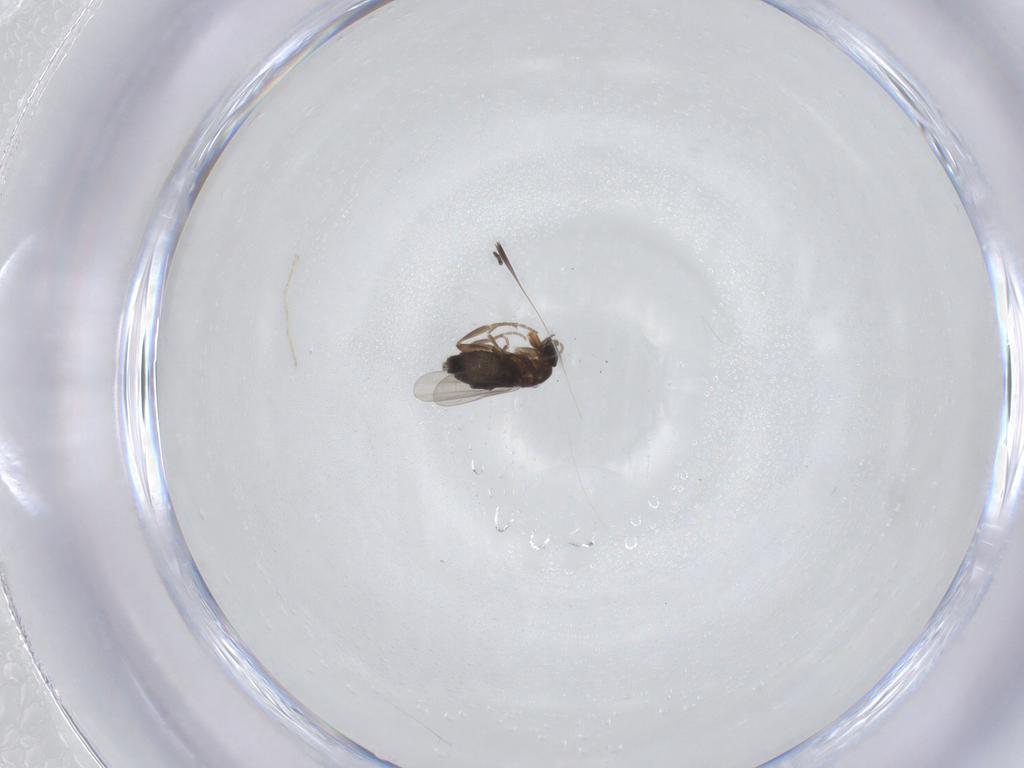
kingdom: Animalia
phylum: Arthropoda
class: Insecta
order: Diptera
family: Phoridae
